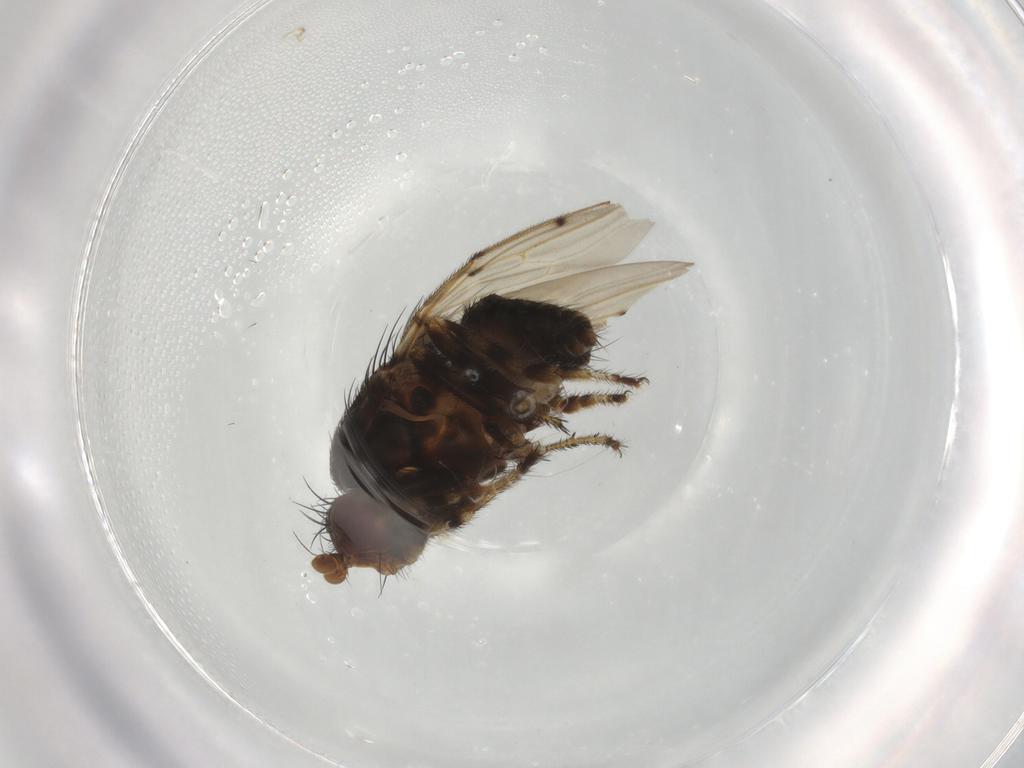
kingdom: Animalia
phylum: Arthropoda
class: Insecta
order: Diptera
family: Sphaeroceridae
